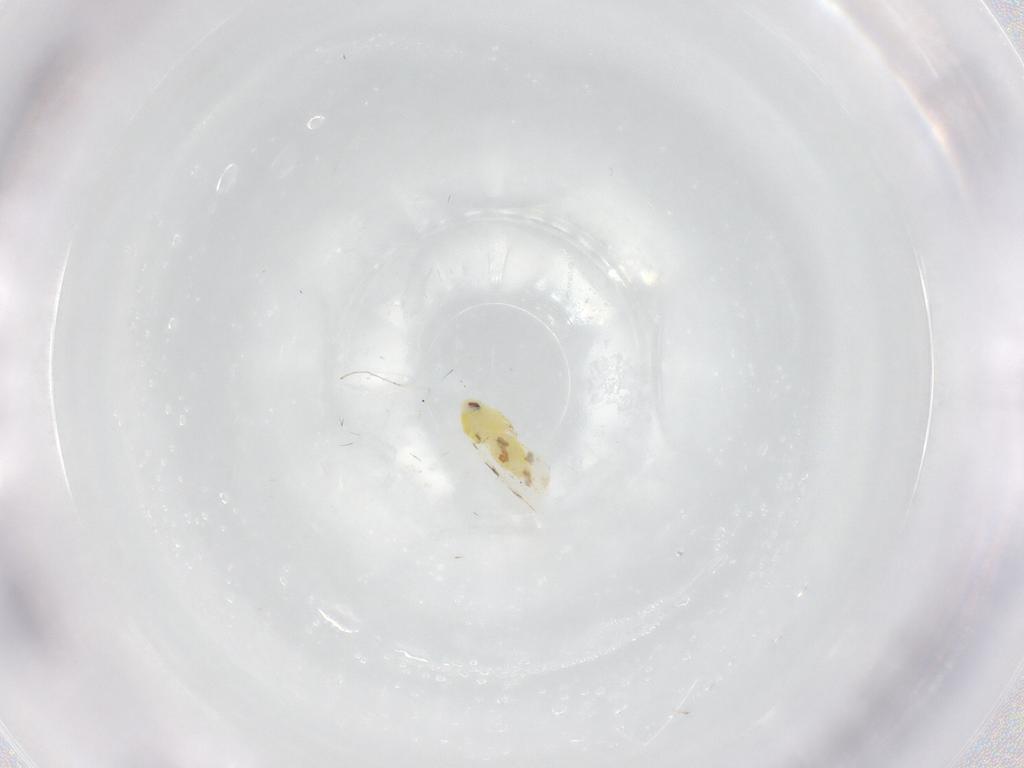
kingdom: Animalia
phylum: Arthropoda
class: Insecta
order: Hemiptera
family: Aleyrodidae
